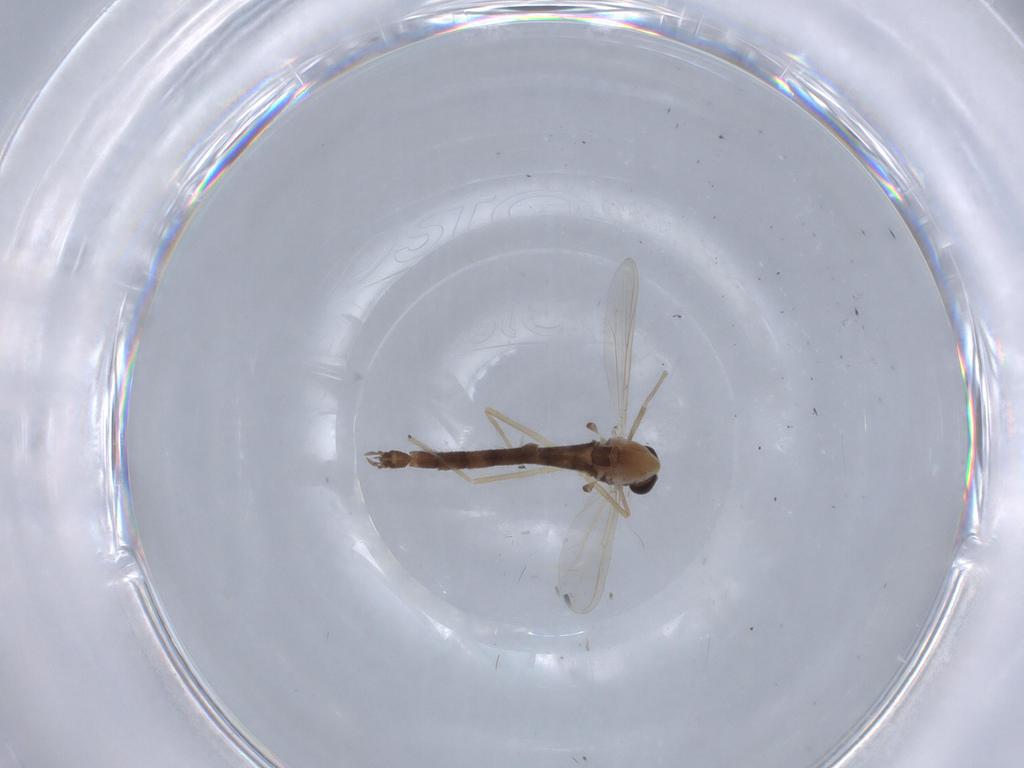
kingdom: Animalia
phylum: Arthropoda
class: Insecta
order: Diptera
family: Chironomidae
